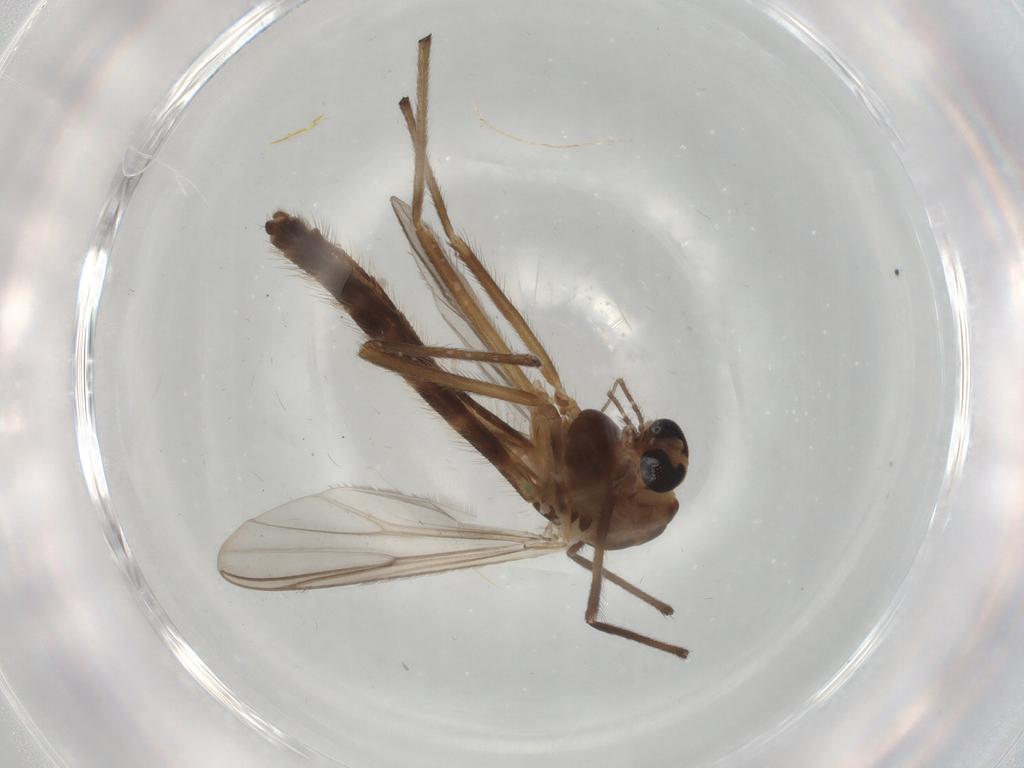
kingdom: Animalia
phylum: Arthropoda
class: Insecta
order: Diptera
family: Chironomidae
